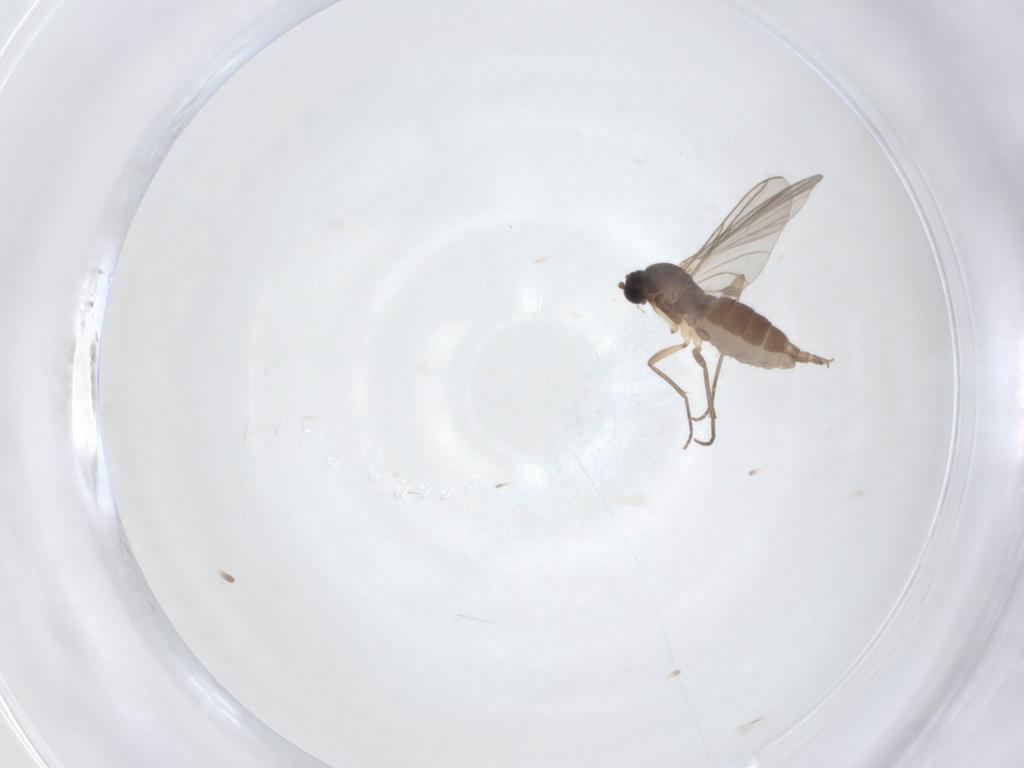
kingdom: Animalia
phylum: Arthropoda
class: Insecta
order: Diptera
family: Sciaridae
